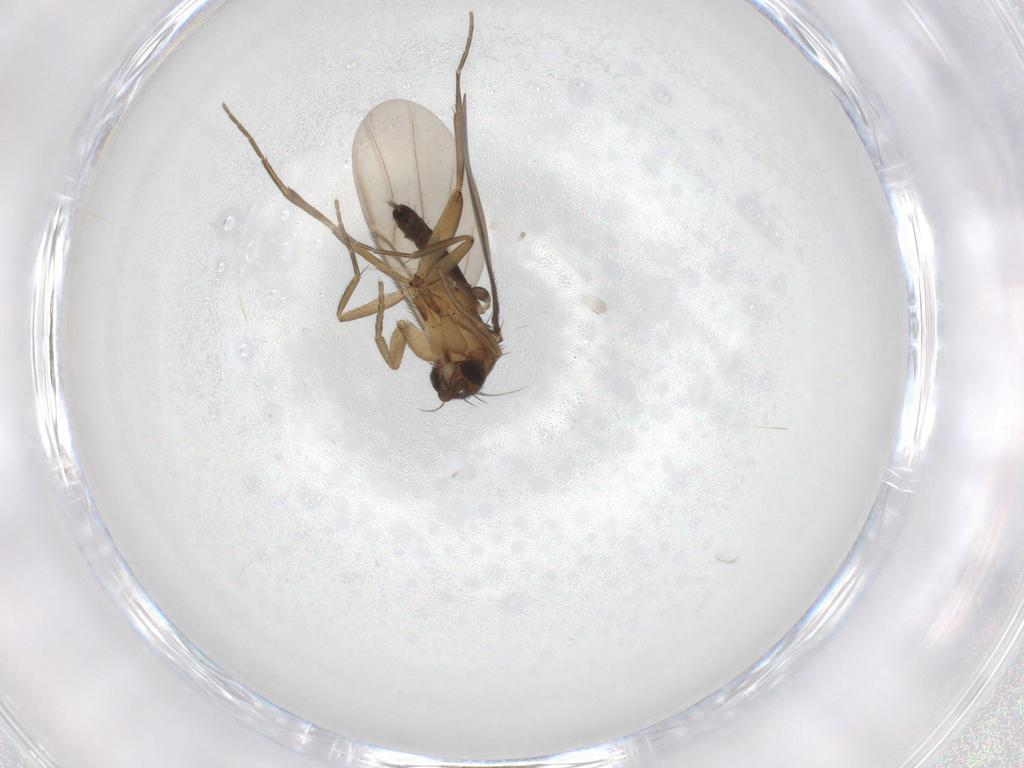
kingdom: Animalia
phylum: Arthropoda
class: Insecta
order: Diptera
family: Phoridae
